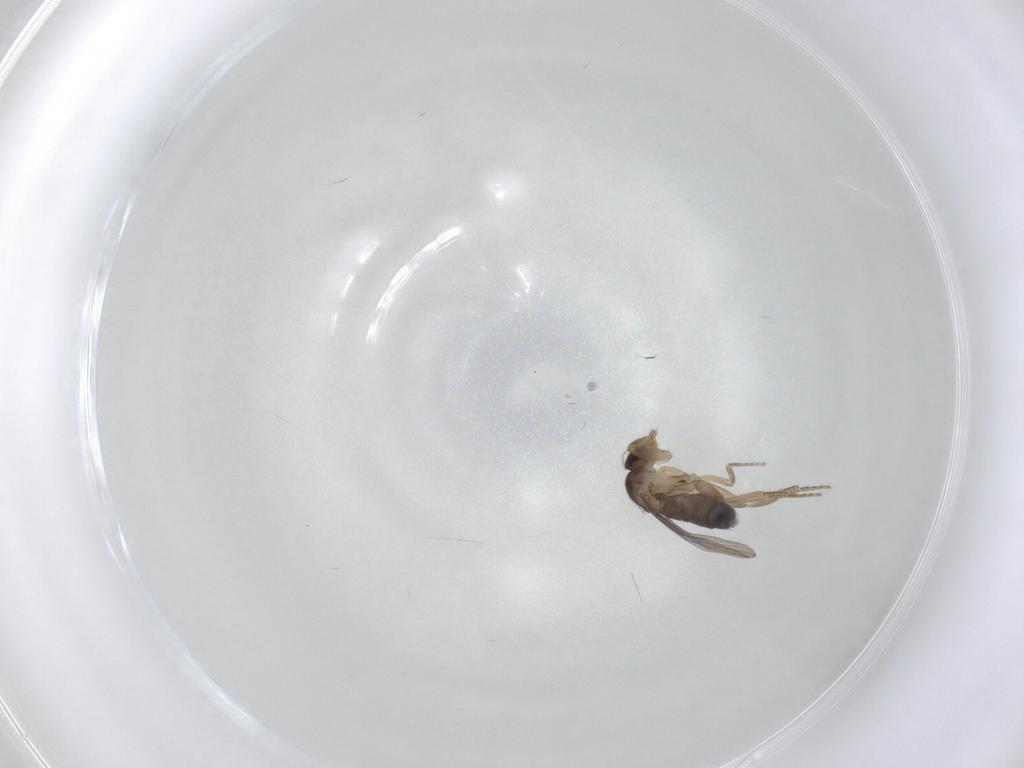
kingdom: Animalia
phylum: Arthropoda
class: Insecta
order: Diptera
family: Phoridae
